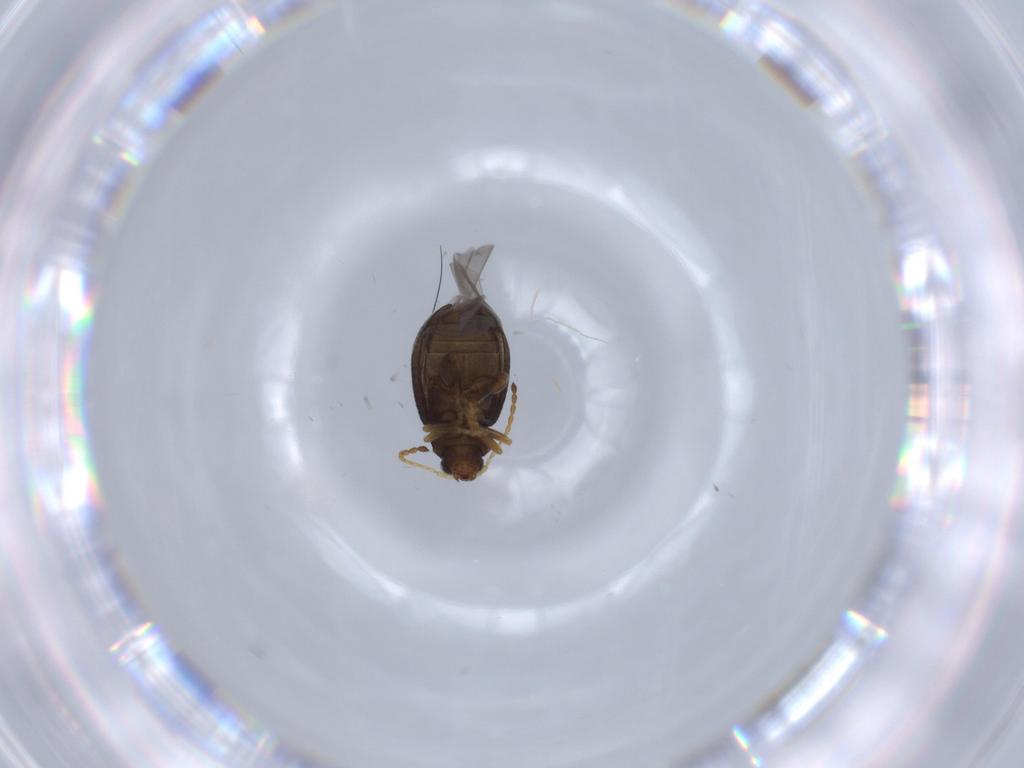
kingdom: Animalia
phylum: Arthropoda
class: Insecta
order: Coleoptera
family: Chrysomelidae
